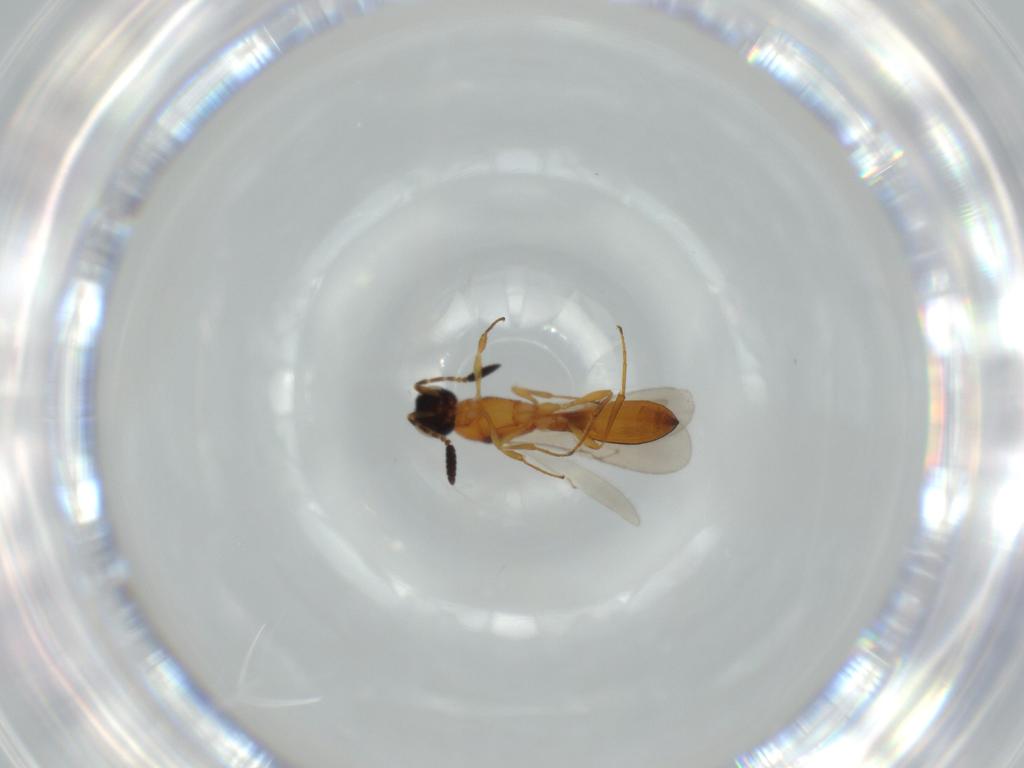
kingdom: Animalia
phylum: Arthropoda
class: Insecta
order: Hymenoptera
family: Scelionidae
